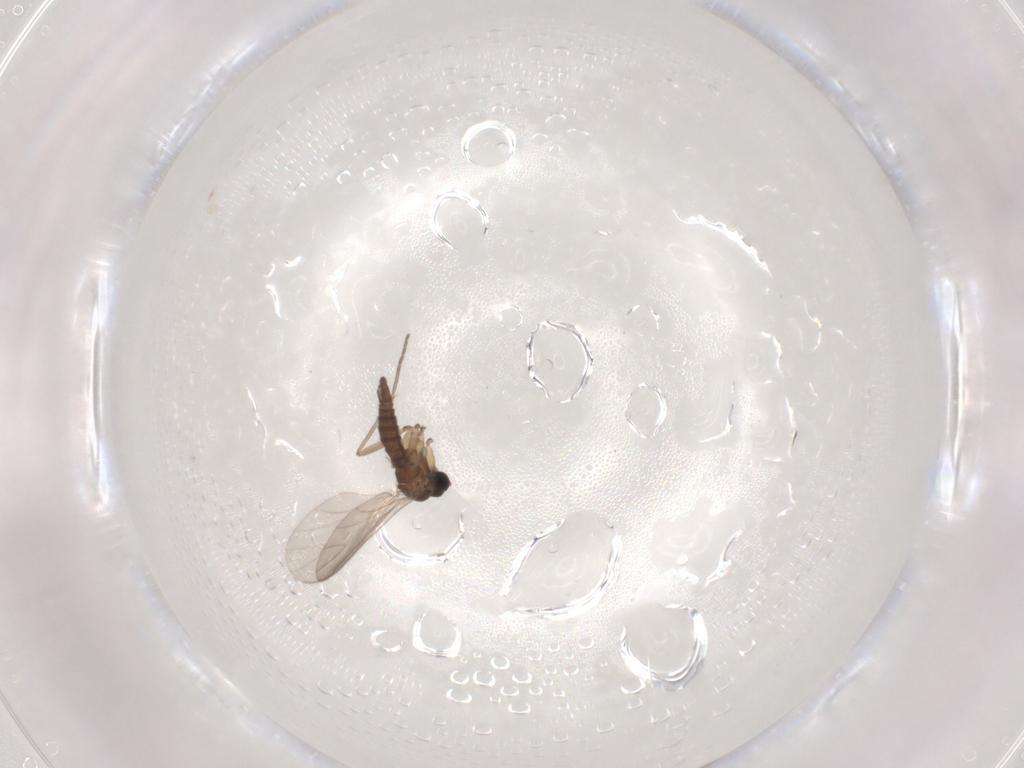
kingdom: Animalia
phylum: Arthropoda
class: Insecta
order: Diptera
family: Sciaridae
